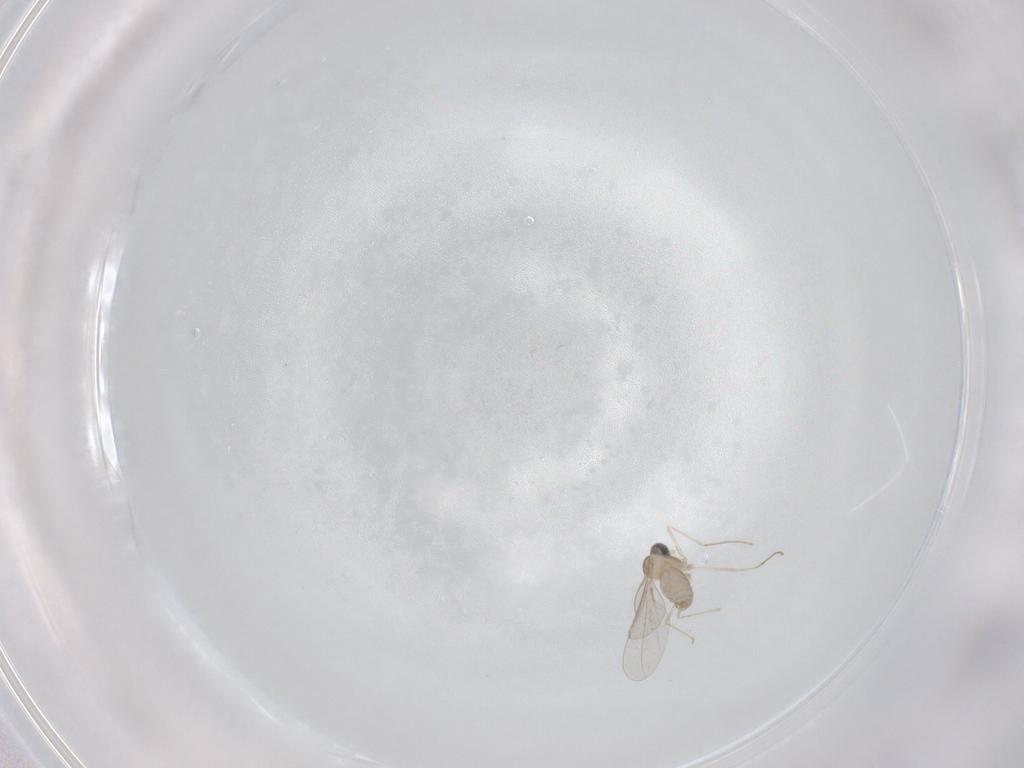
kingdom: Animalia
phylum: Arthropoda
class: Insecta
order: Diptera
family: Cecidomyiidae
